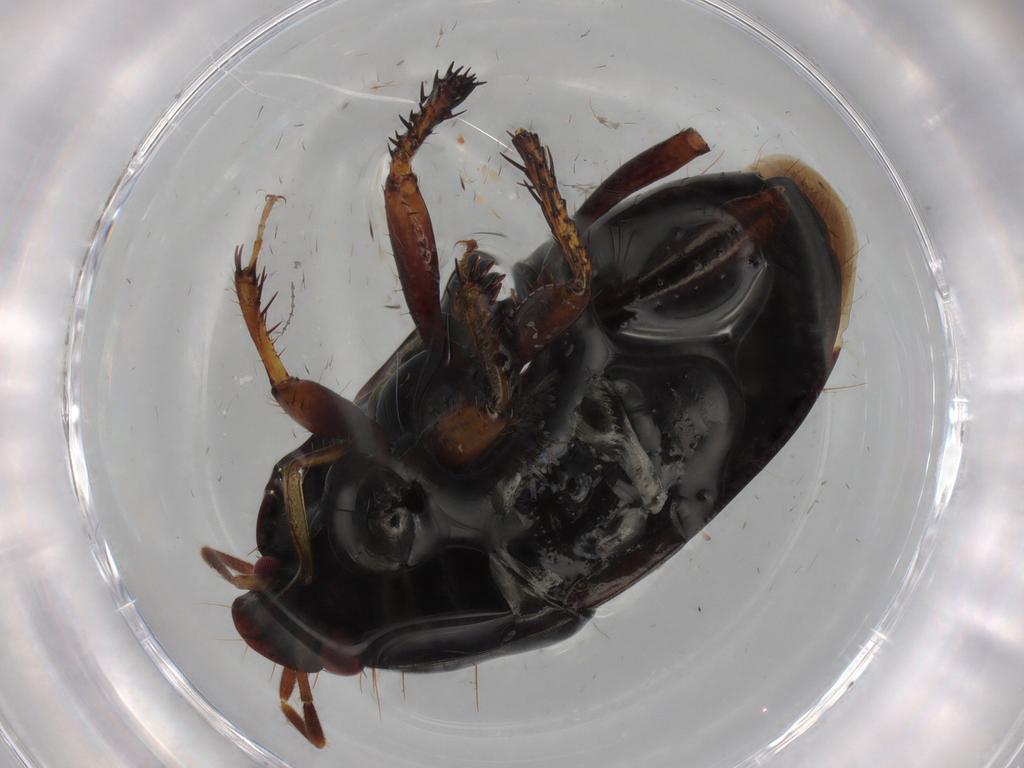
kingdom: Animalia
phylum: Arthropoda
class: Insecta
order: Hemiptera
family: Cydnidae
